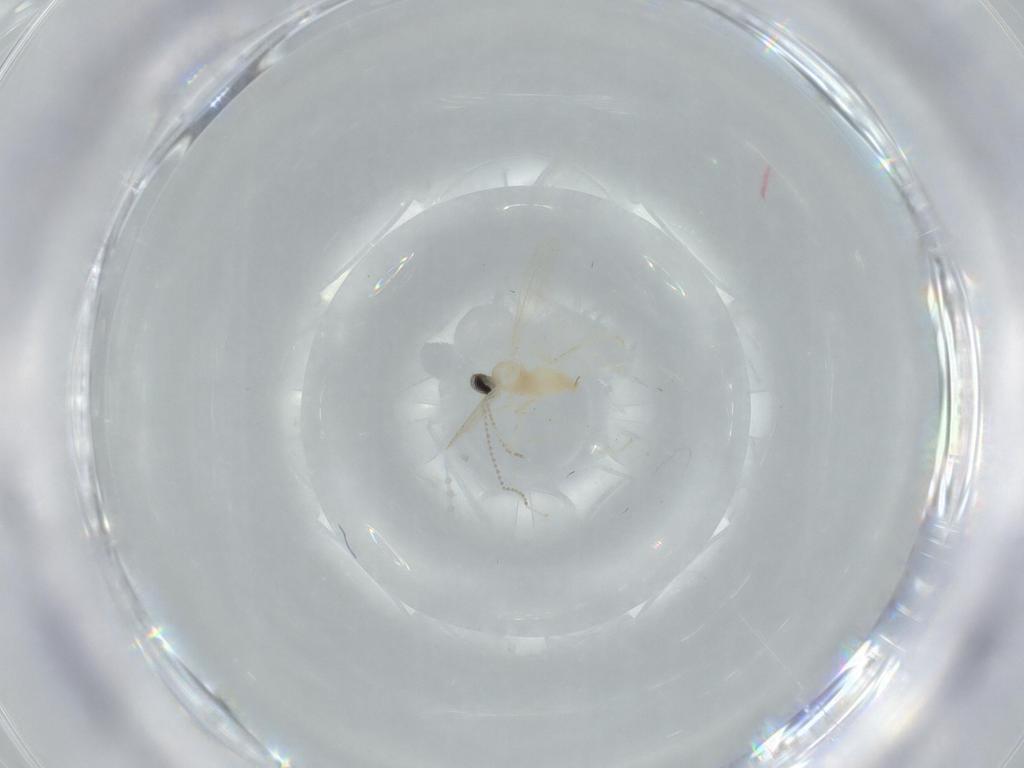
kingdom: Animalia
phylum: Arthropoda
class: Insecta
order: Diptera
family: Cecidomyiidae
